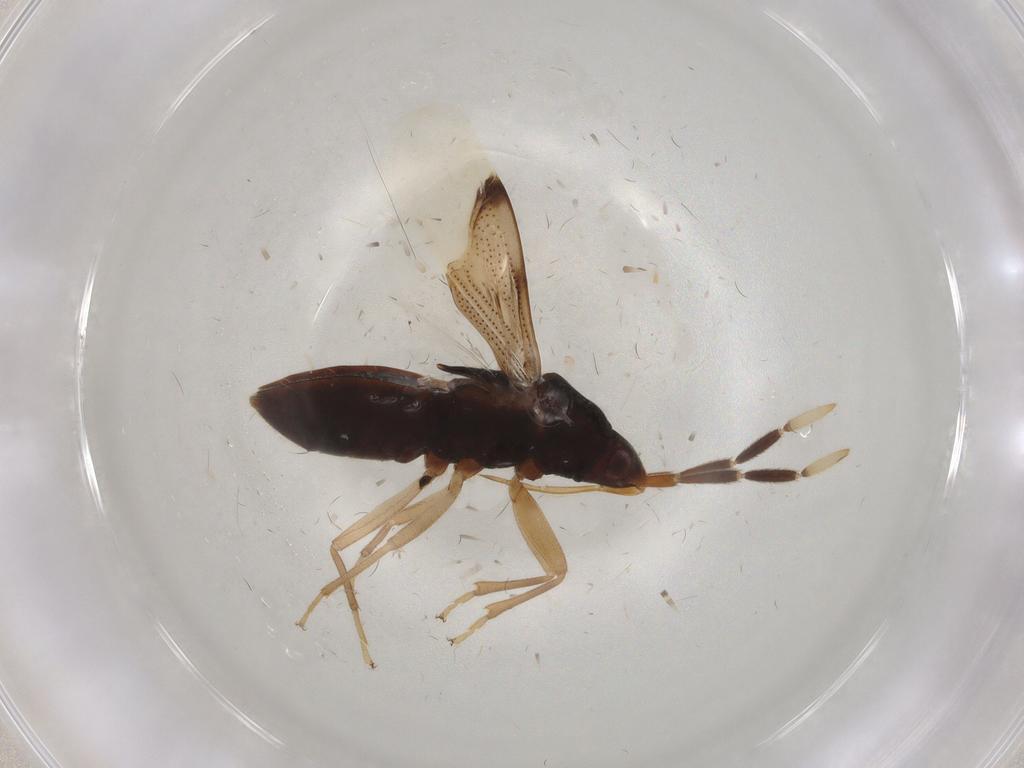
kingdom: Animalia
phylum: Arthropoda
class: Insecta
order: Hemiptera
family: Rhyparochromidae
